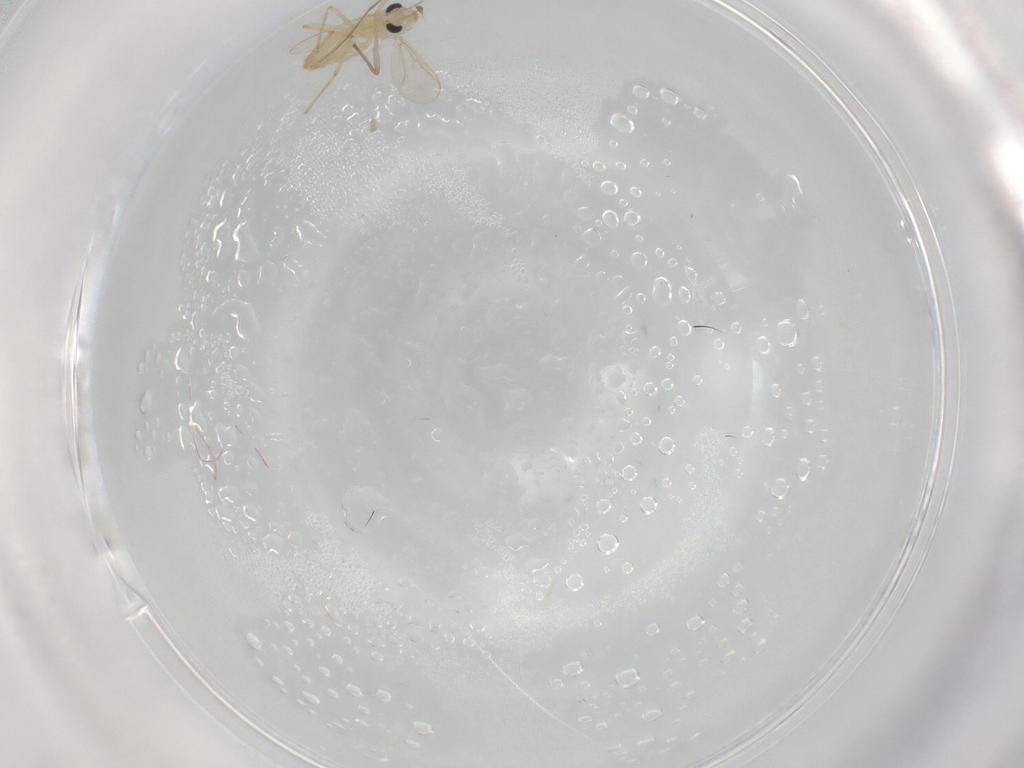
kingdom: Animalia
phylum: Arthropoda
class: Insecta
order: Diptera
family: Chironomidae
